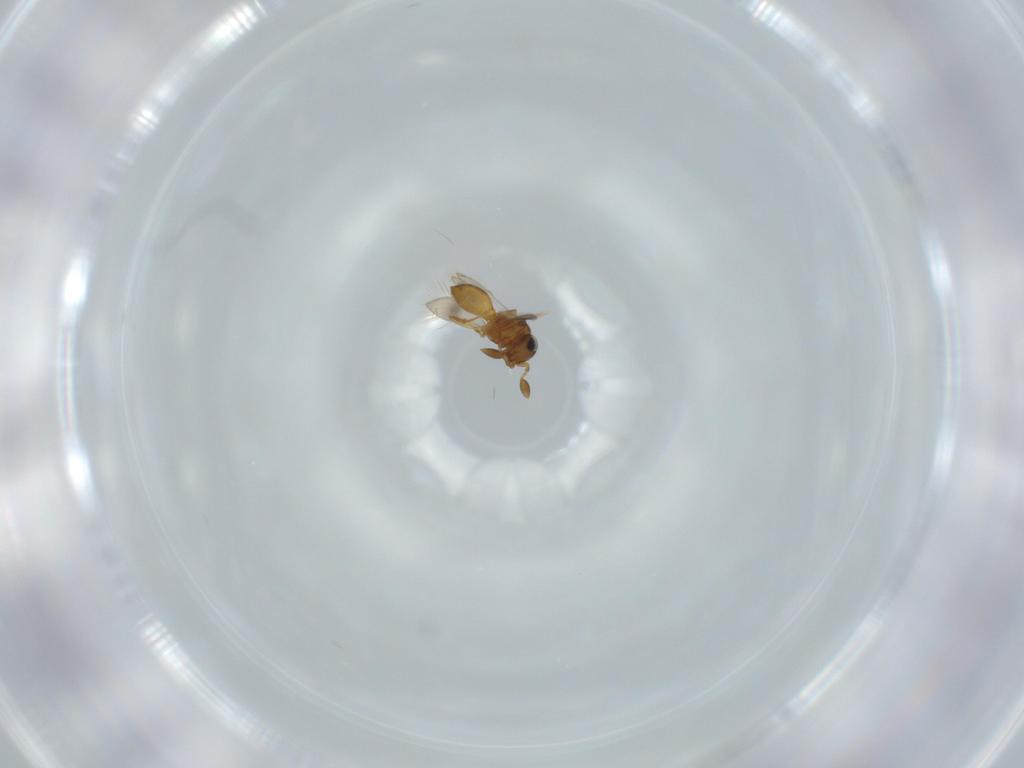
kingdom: Animalia
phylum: Arthropoda
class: Insecta
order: Hymenoptera
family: Scelionidae
